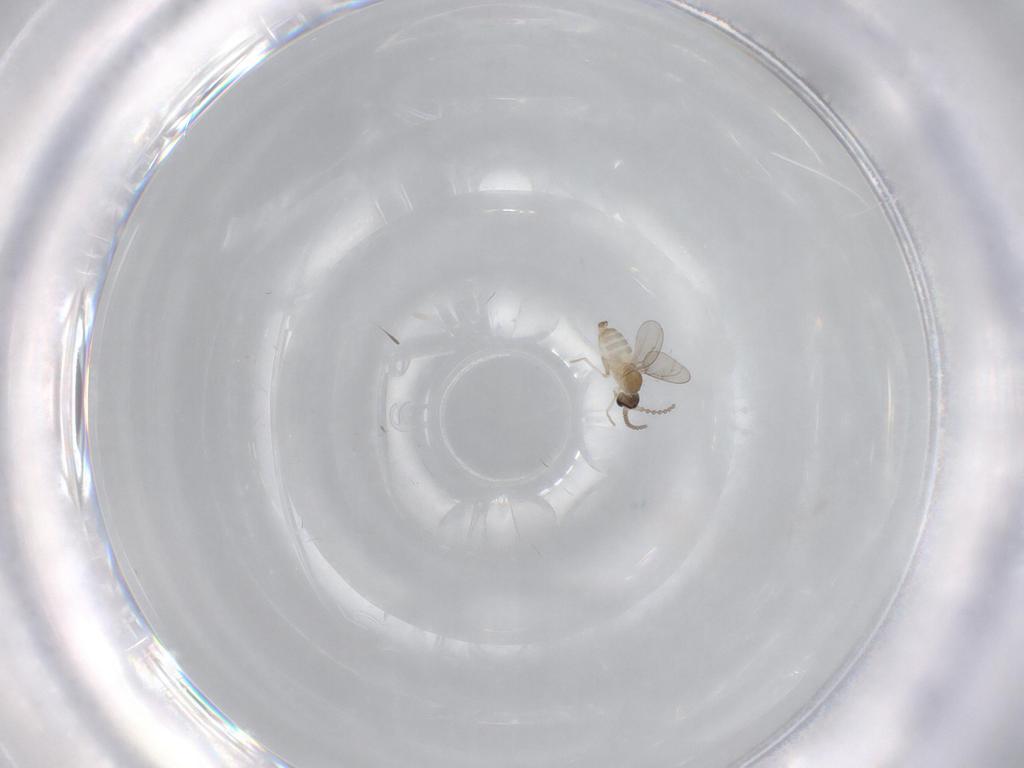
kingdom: Animalia
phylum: Arthropoda
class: Insecta
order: Diptera
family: Cecidomyiidae
